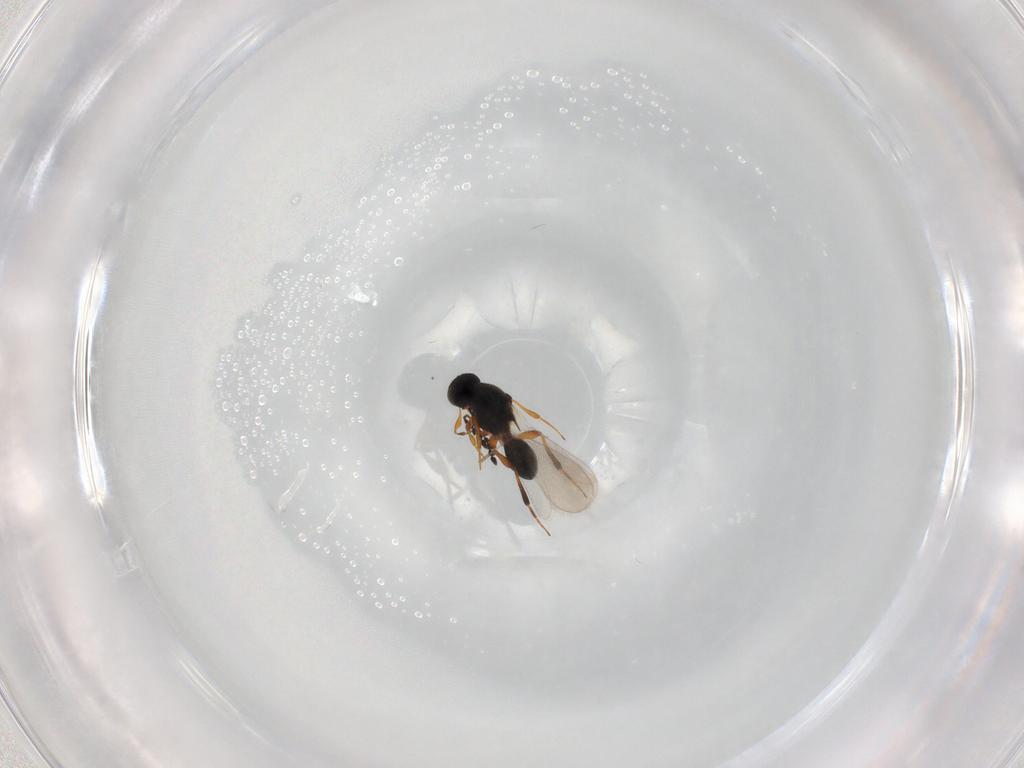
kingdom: Animalia
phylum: Arthropoda
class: Insecta
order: Hymenoptera
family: Platygastridae
